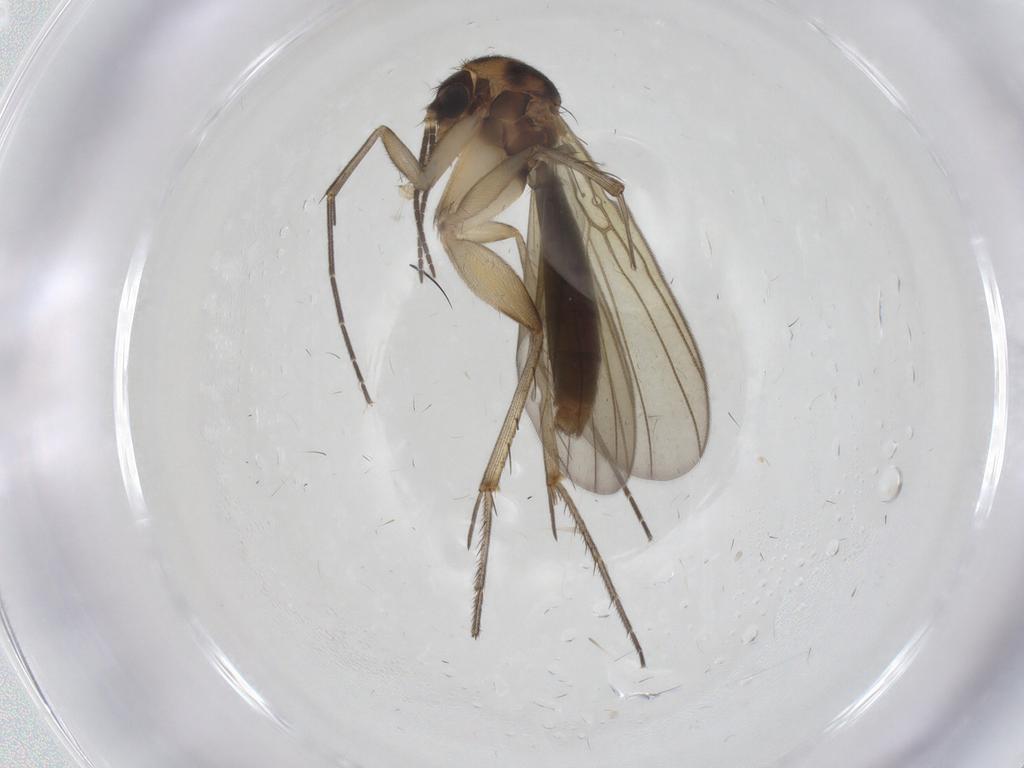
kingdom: Animalia
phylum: Arthropoda
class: Insecta
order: Diptera
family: Mycetophilidae
